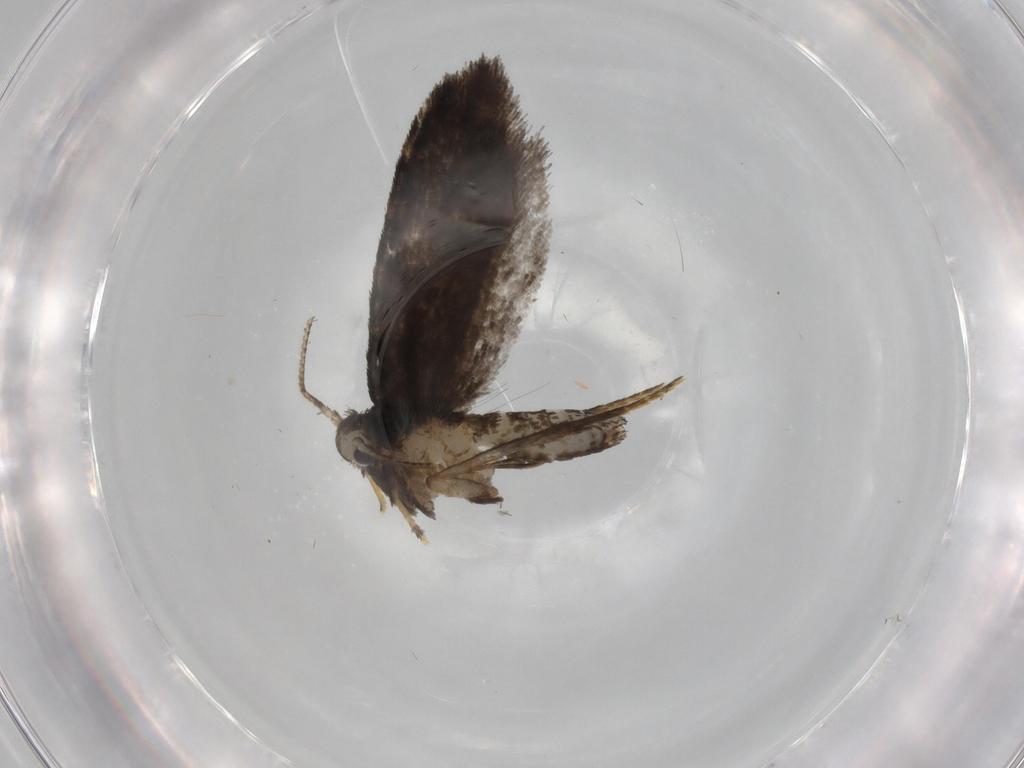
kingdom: Animalia
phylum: Arthropoda
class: Insecta
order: Lepidoptera
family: Psychidae
